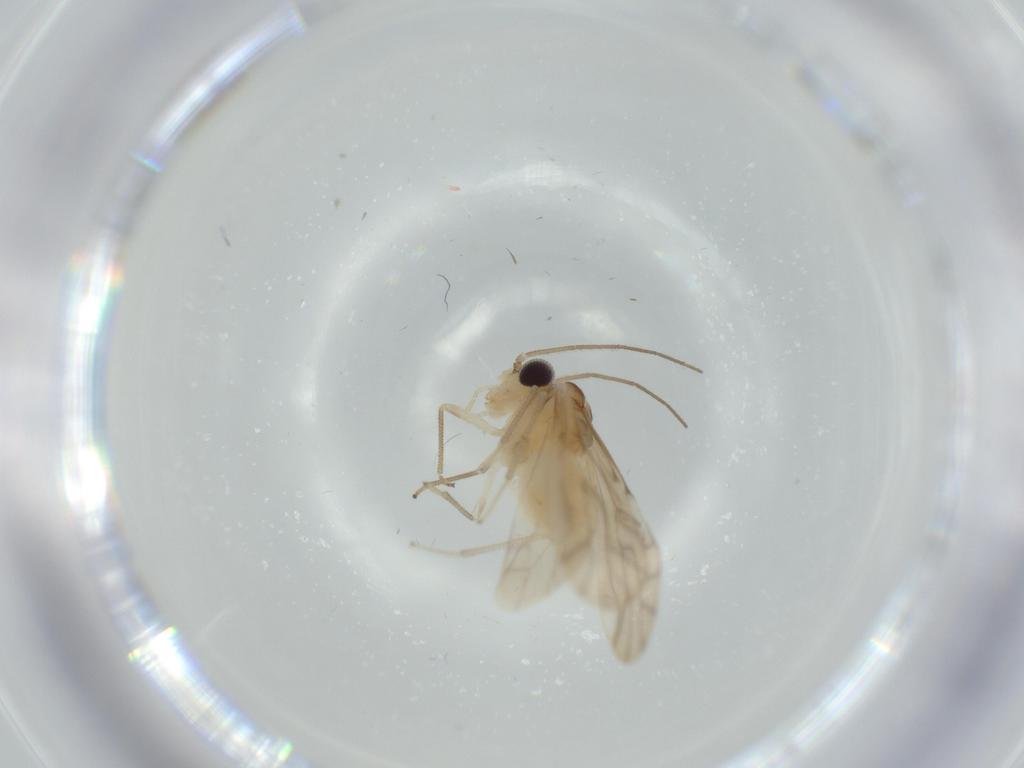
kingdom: Animalia
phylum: Arthropoda
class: Insecta
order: Psocodea
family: Caeciliusidae
